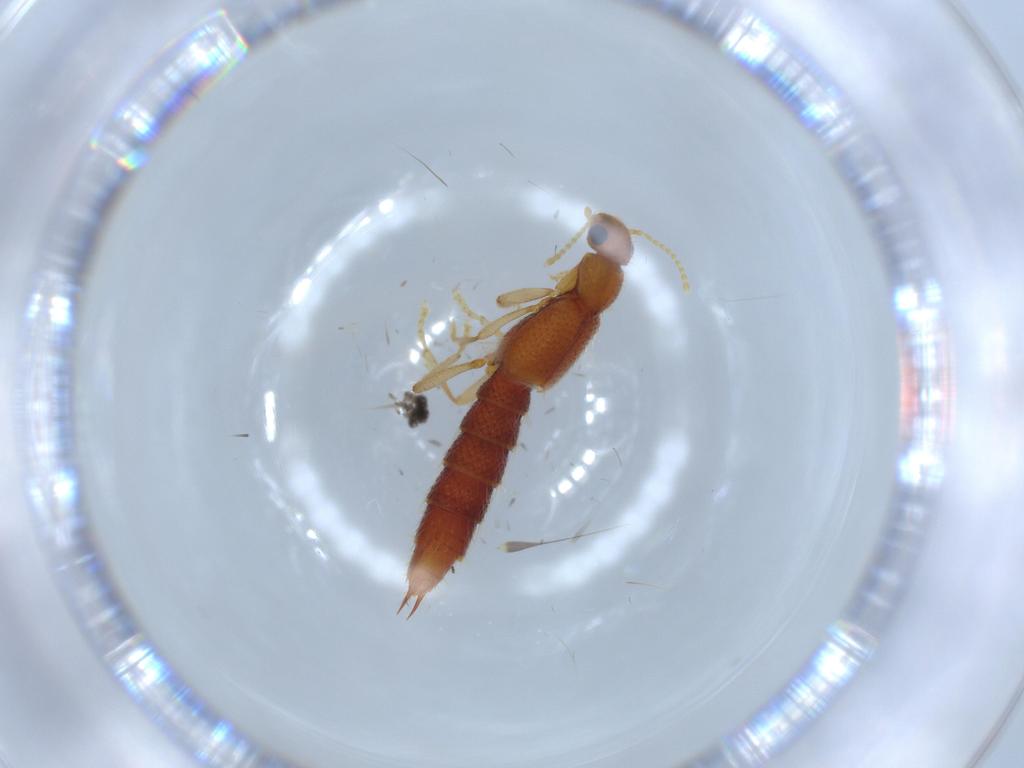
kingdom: Animalia
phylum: Arthropoda
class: Insecta
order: Coleoptera
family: Staphylinidae
